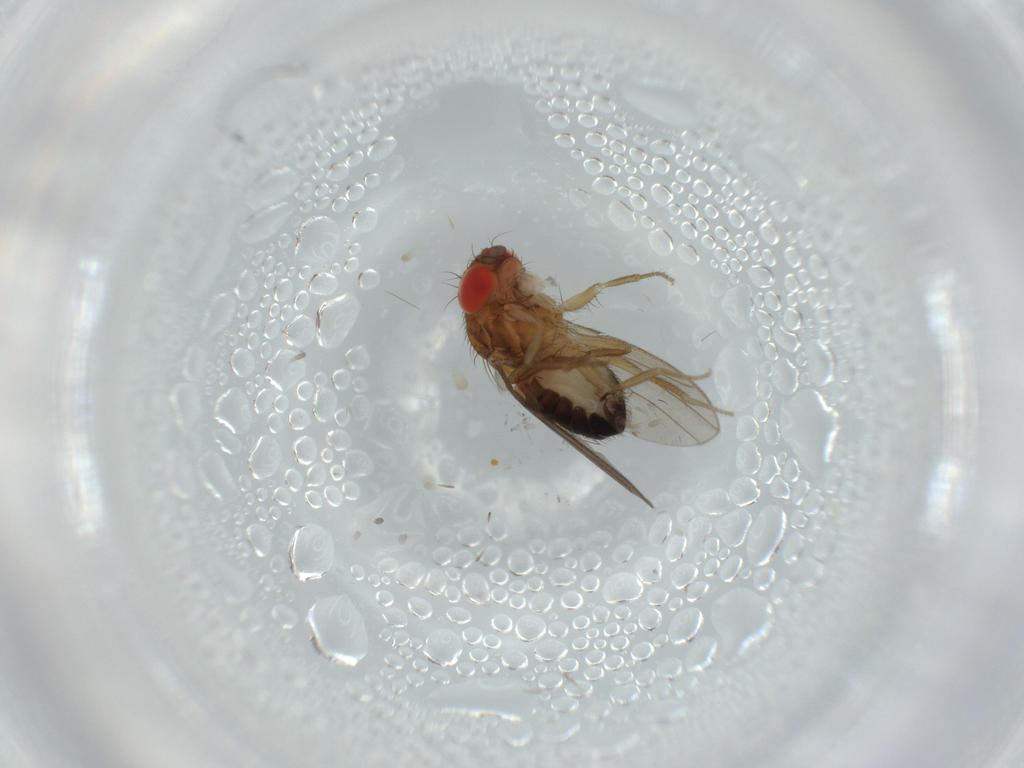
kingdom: Animalia
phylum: Arthropoda
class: Insecta
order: Diptera
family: Drosophilidae
